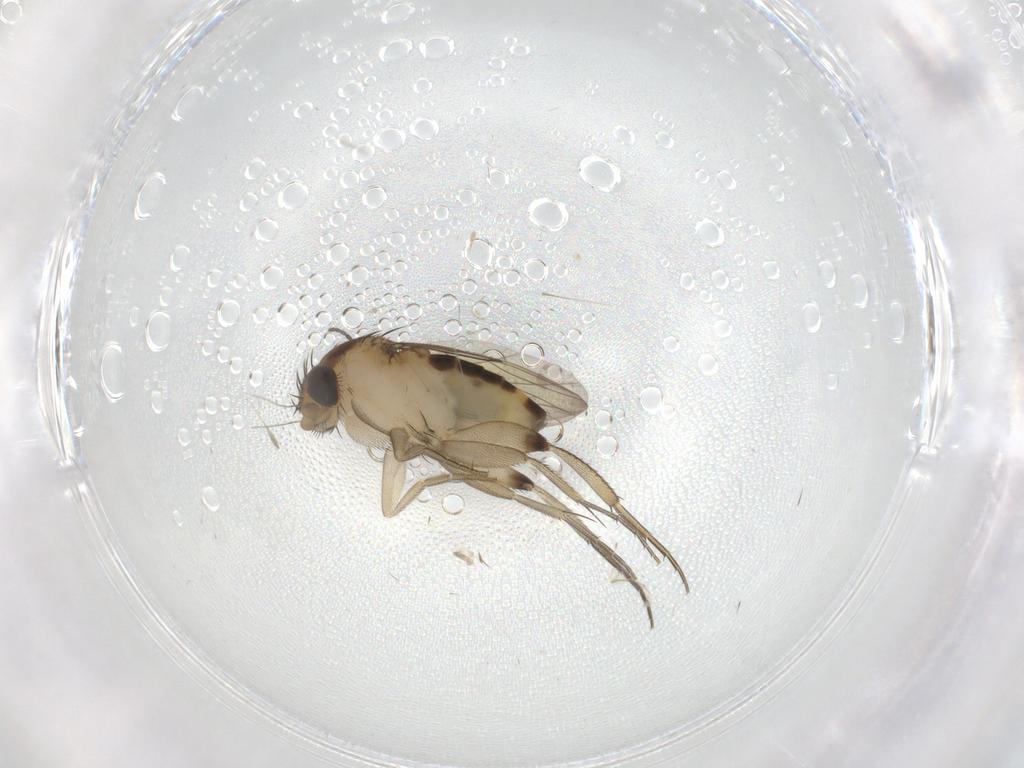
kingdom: Animalia
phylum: Arthropoda
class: Insecta
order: Diptera
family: Phoridae
